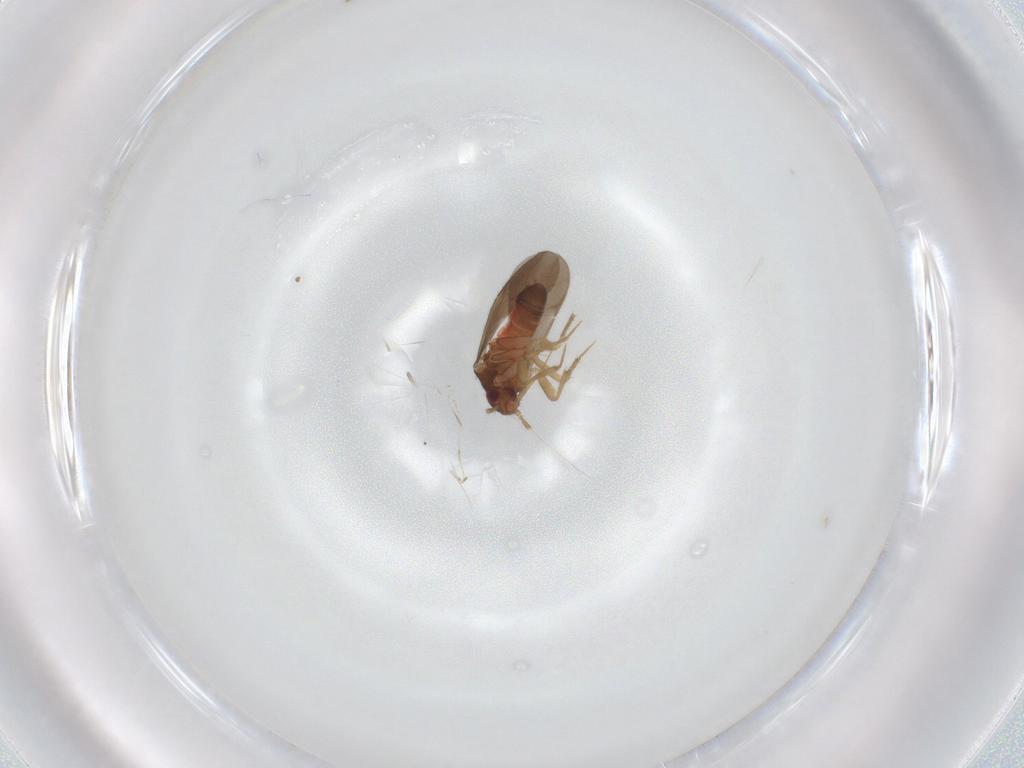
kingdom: Animalia
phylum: Arthropoda
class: Insecta
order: Hemiptera
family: Ceratocombidae
